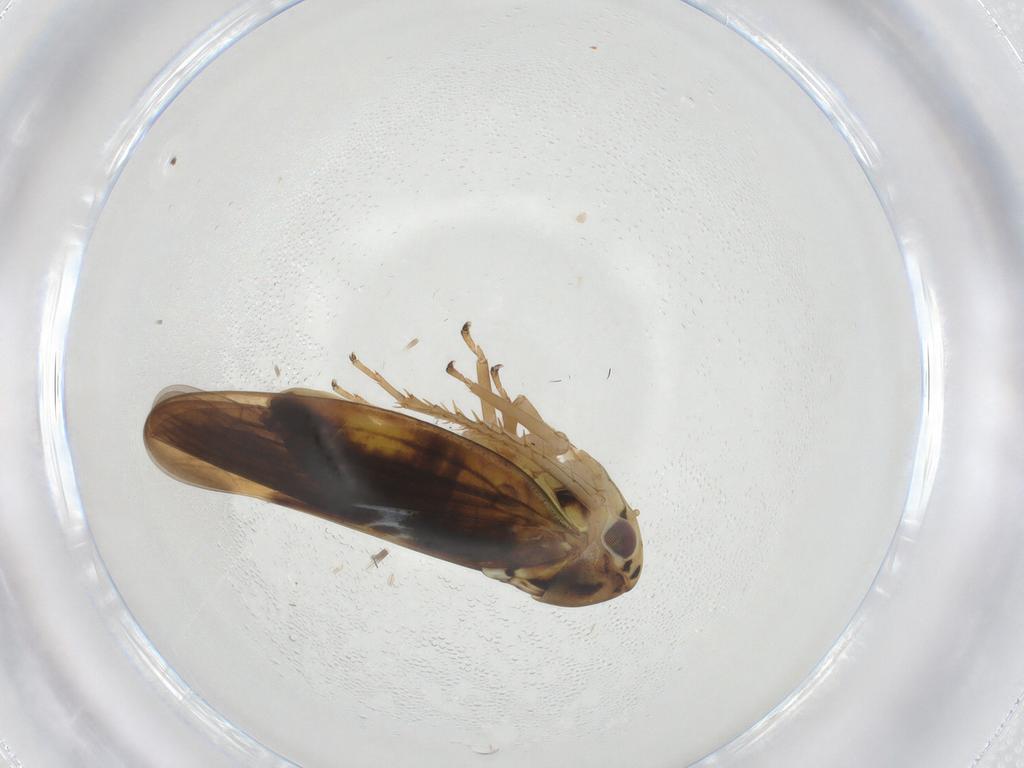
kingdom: Animalia
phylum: Arthropoda
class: Insecta
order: Hemiptera
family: Cicadellidae
